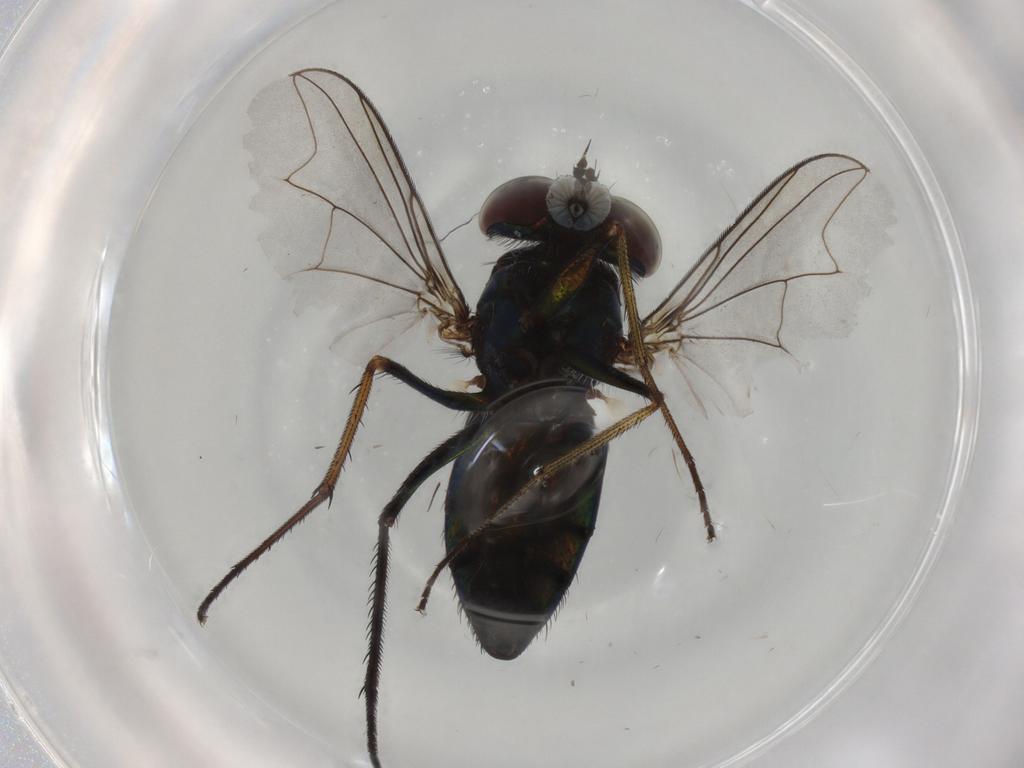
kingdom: Animalia
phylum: Arthropoda
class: Insecta
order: Diptera
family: Dolichopodidae
